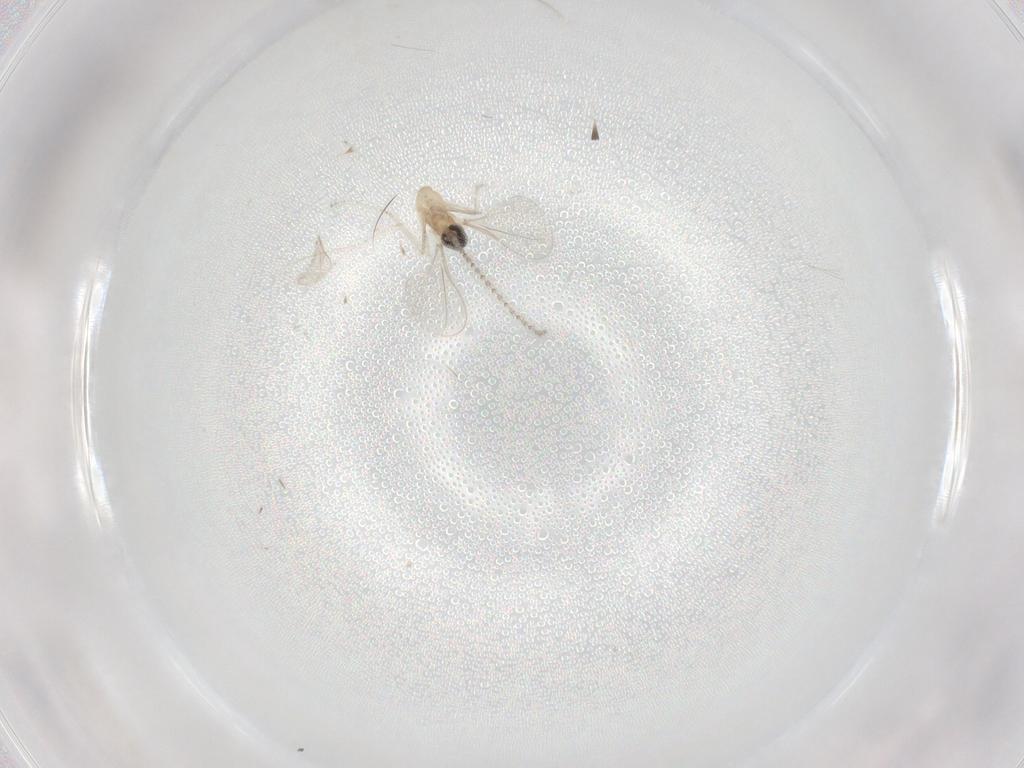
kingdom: Animalia
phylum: Arthropoda
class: Insecta
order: Diptera
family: Cecidomyiidae
